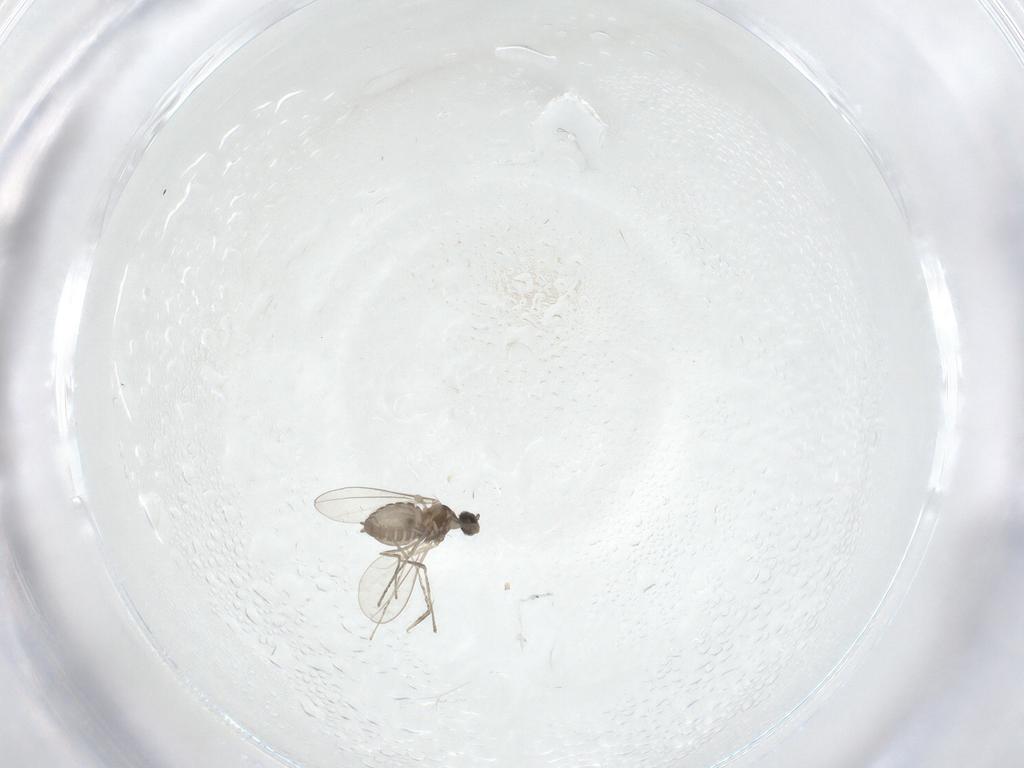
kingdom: Animalia
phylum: Arthropoda
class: Insecta
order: Diptera
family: Cecidomyiidae
